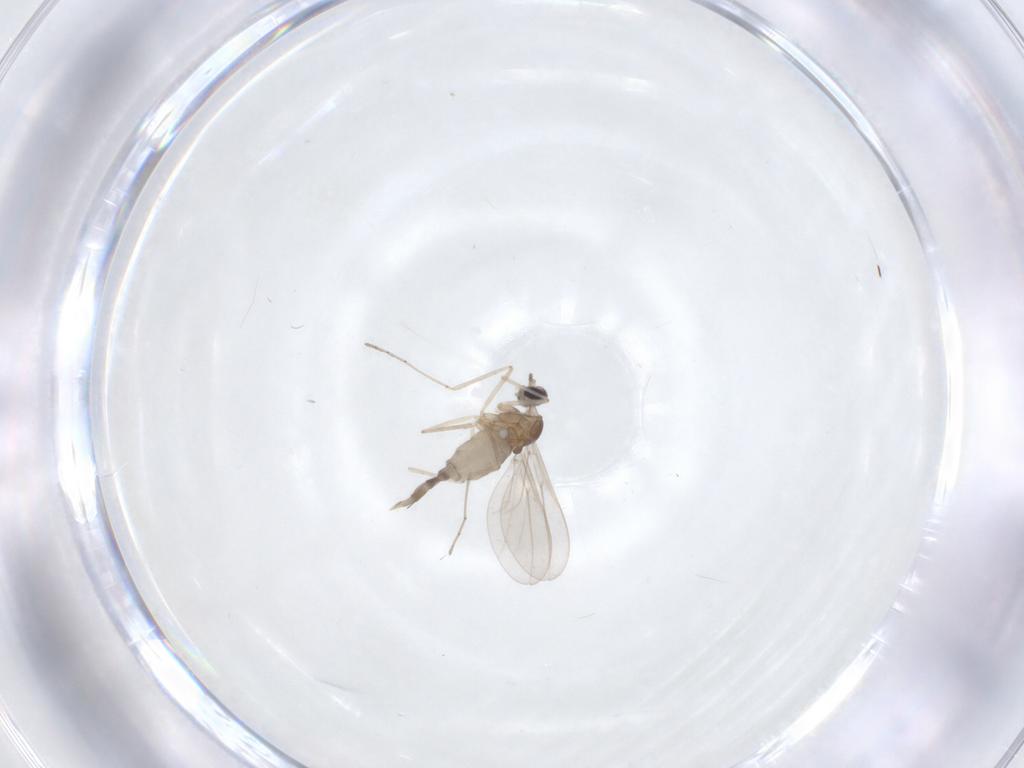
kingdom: Animalia
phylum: Arthropoda
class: Insecta
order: Diptera
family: Cecidomyiidae
